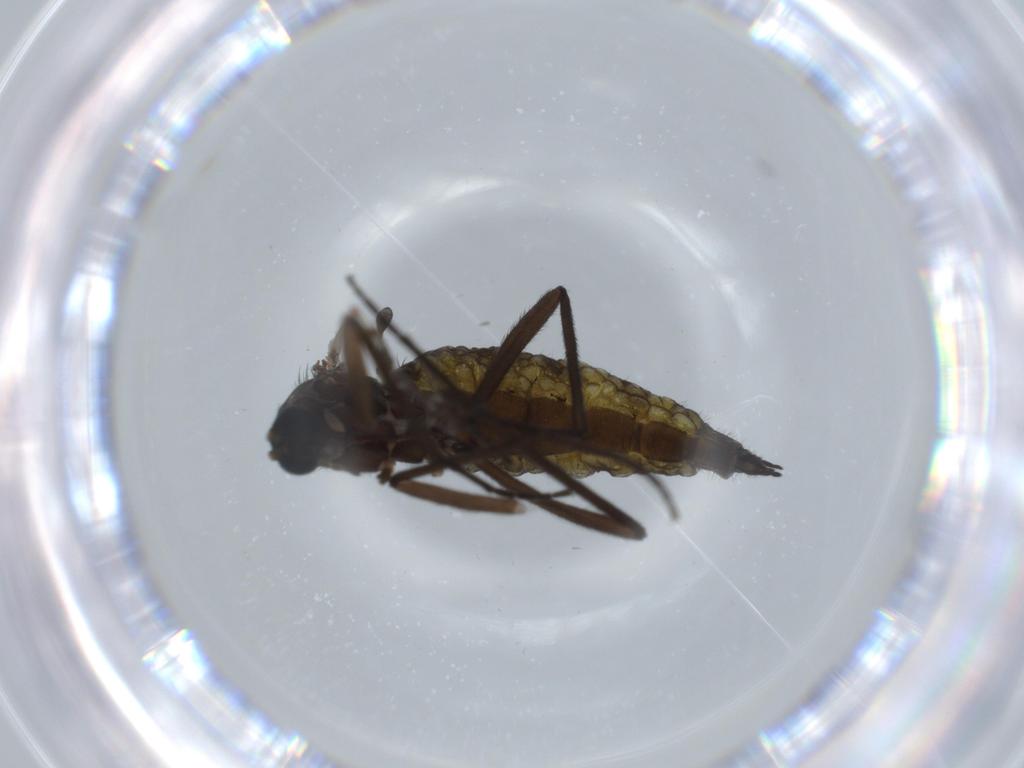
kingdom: Animalia
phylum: Arthropoda
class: Insecta
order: Diptera
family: Sciaridae
